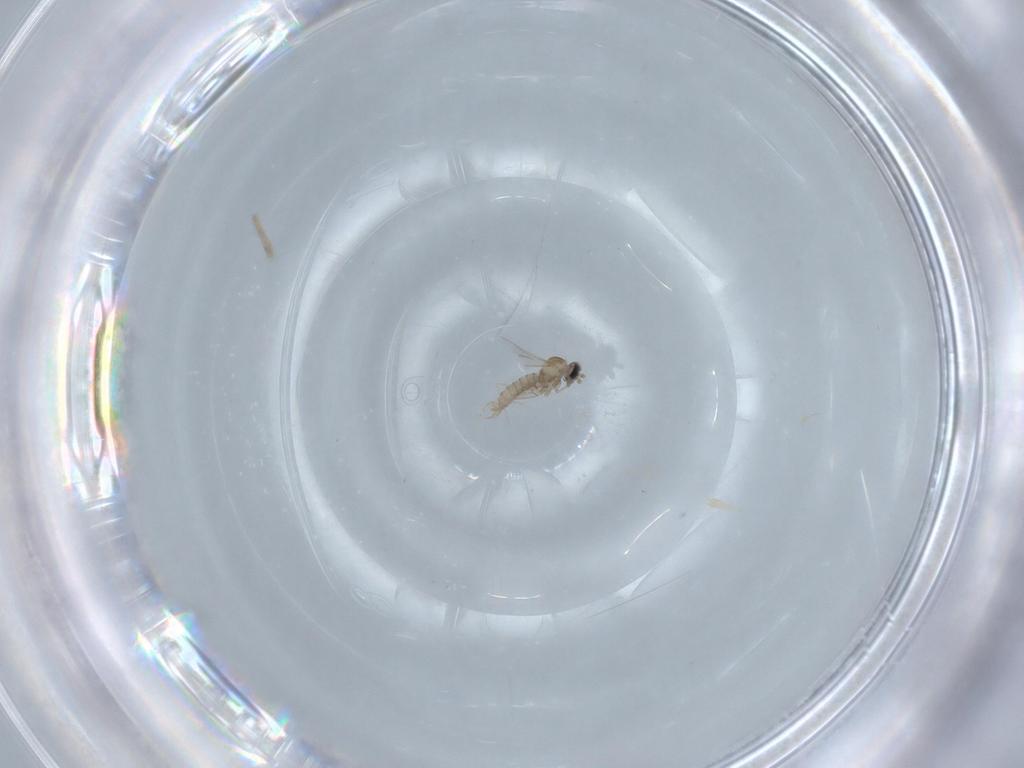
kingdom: Animalia
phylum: Arthropoda
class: Insecta
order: Diptera
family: Psychodidae
